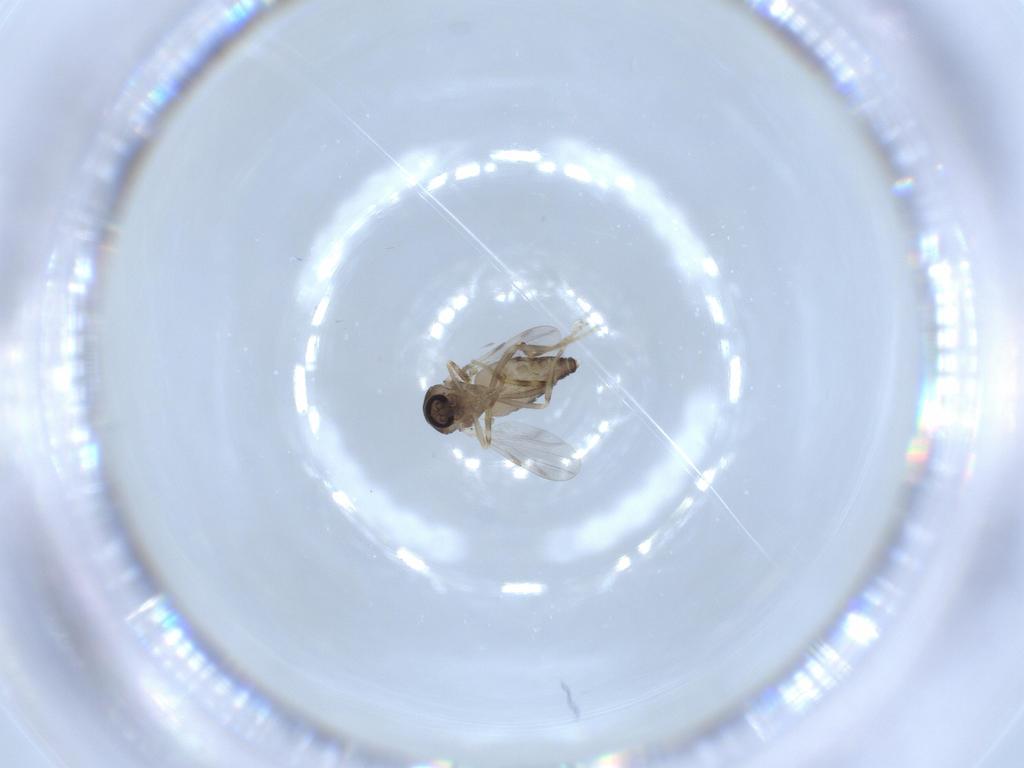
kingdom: Animalia
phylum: Arthropoda
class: Insecta
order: Diptera
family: Ceratopogonidae
